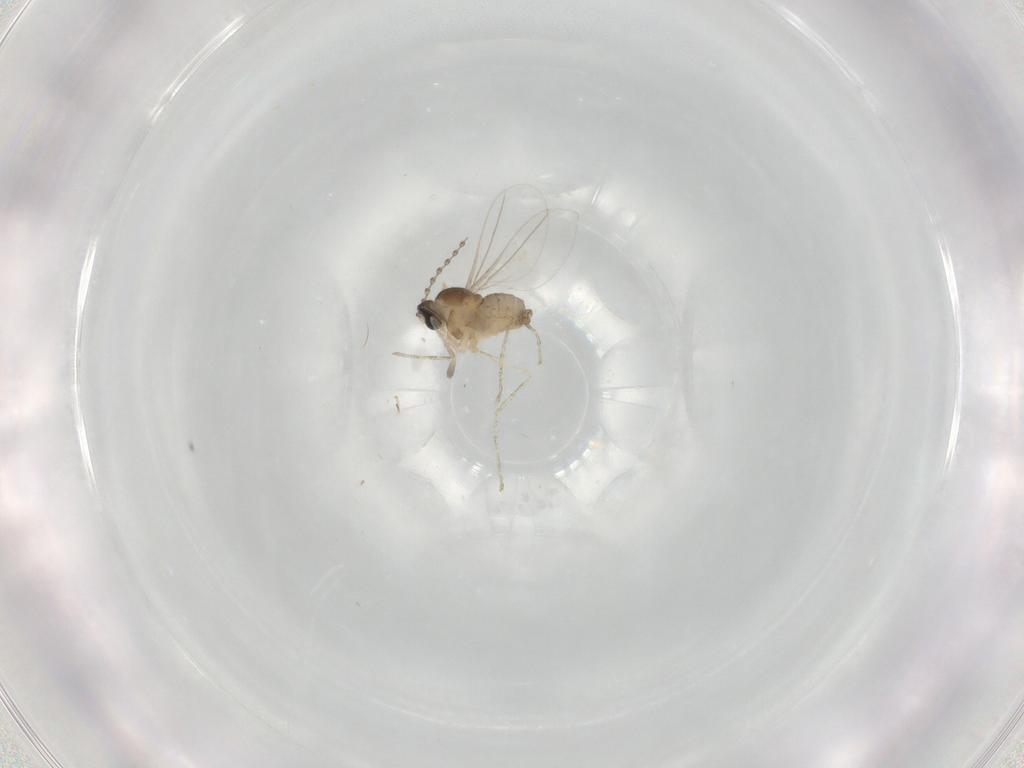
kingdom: Animalia
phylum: Arthropoda
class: Insecta
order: Diptera
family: Cecidomyiidae
